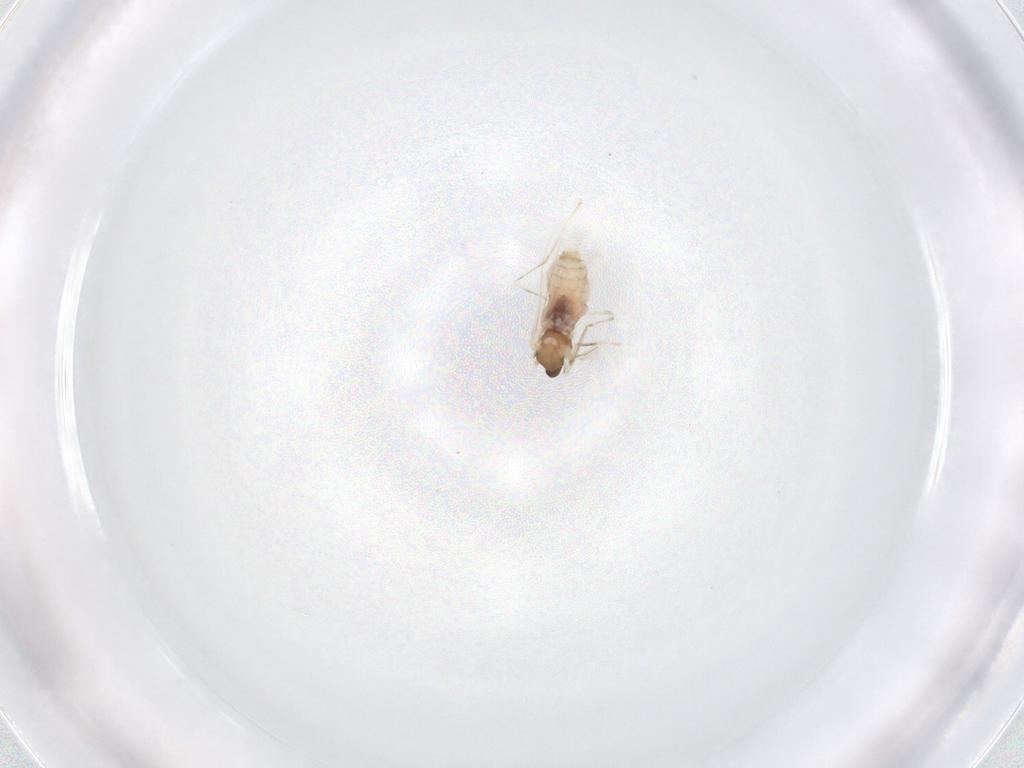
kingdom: Animalia
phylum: Arthropoda
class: Insecta
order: Diptera
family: Cecidomyiidae
